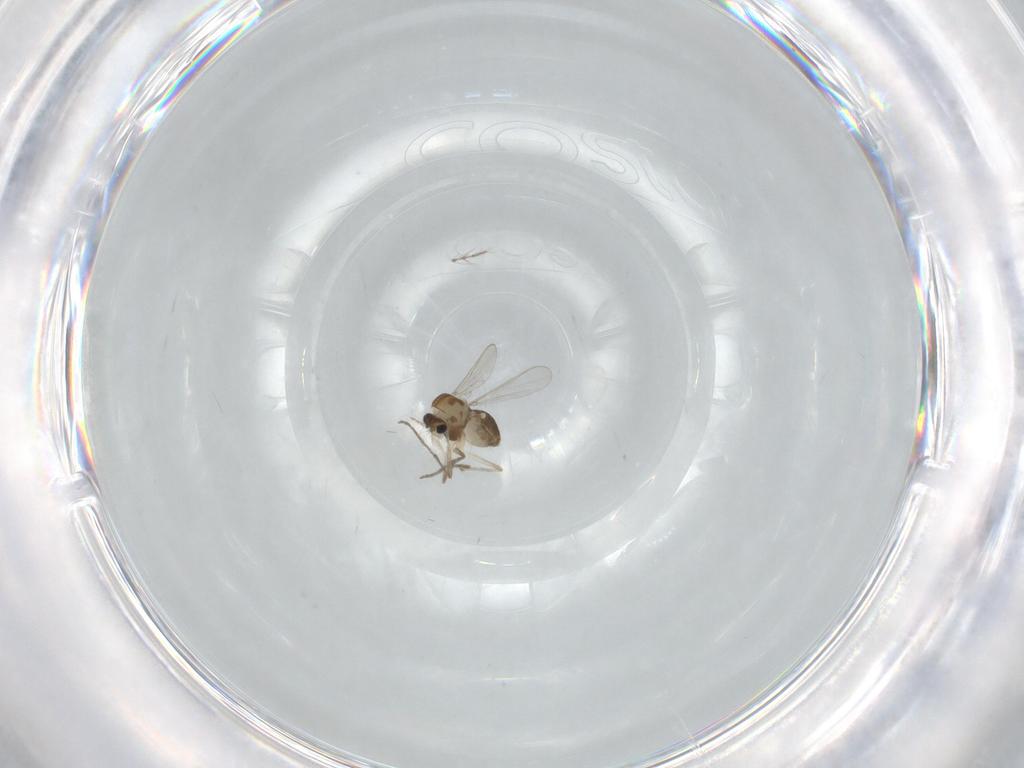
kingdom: Animalia
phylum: Arthropoda
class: Insecta
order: Diptera
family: Chironomidae
